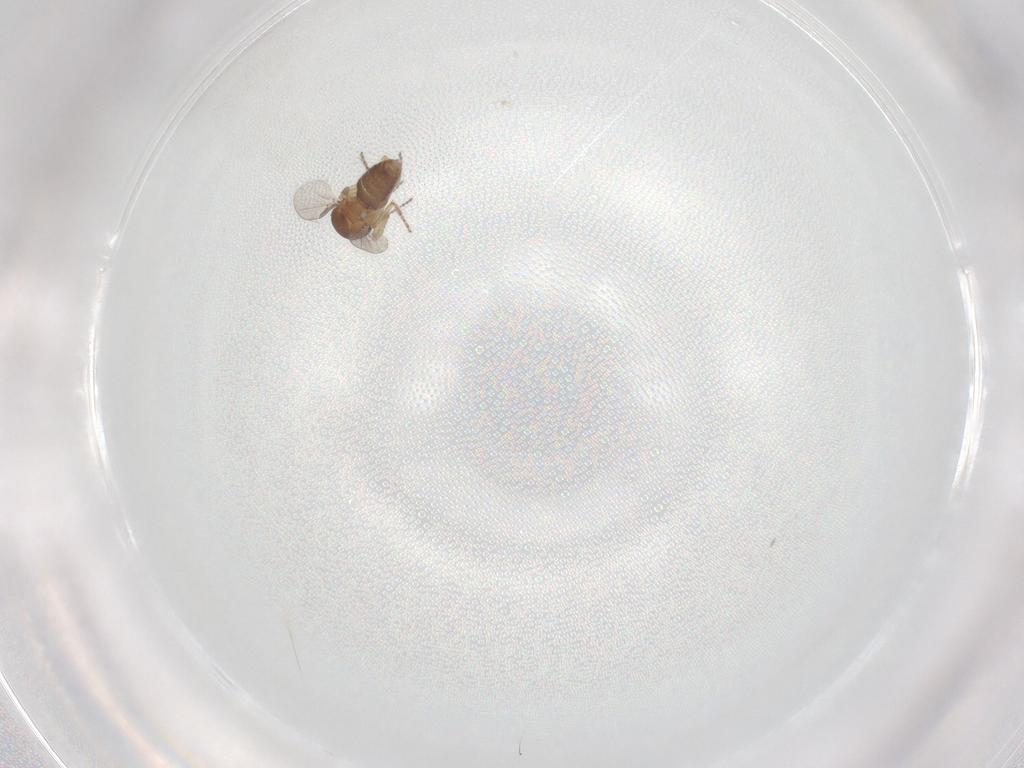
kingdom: Animalia
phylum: Arthropoda
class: Insecta
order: Diptera
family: Ceratopogonidae
